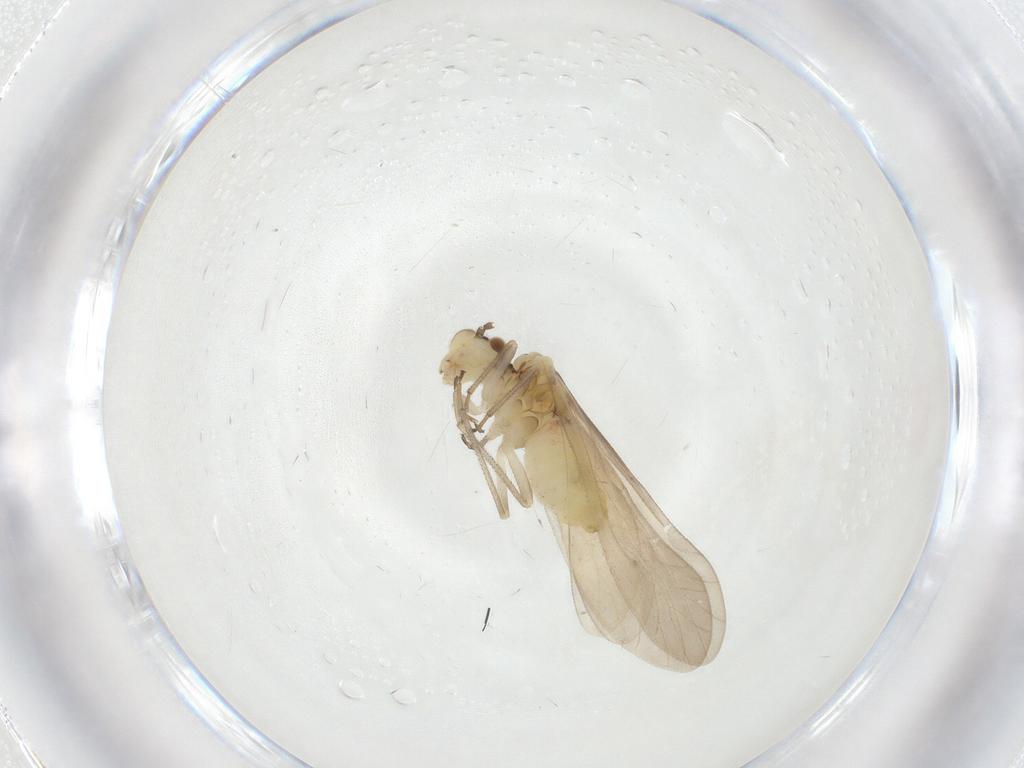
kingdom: Animalia
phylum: Arthropoda
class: Insecta
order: Psocodea
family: Caeciliusidae
